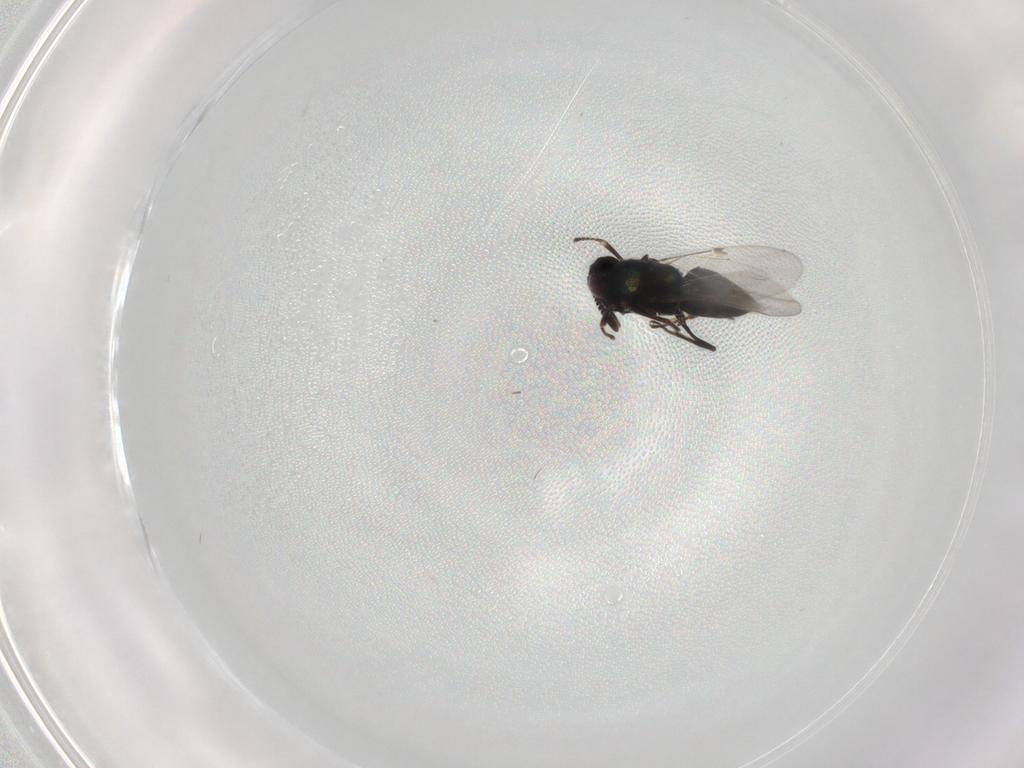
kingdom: Animalia
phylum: Arthropoda
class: Insecta
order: Hymenoptera
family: Encyrtidae
